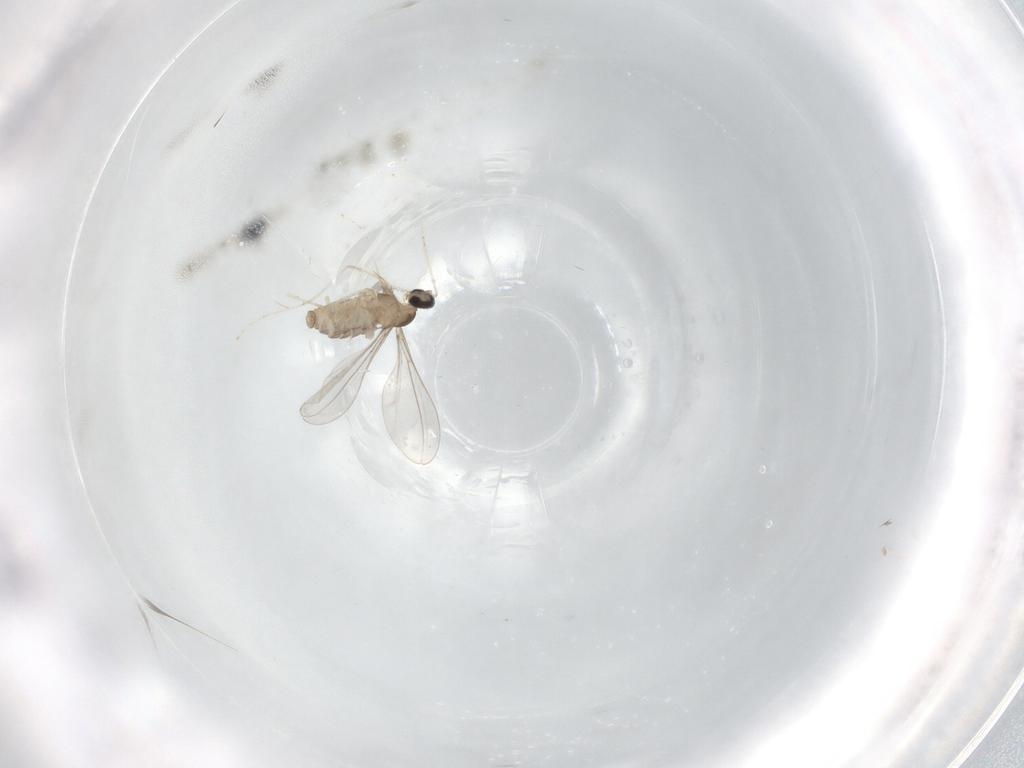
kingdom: Animalia
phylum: Arthropoda
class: Insecta
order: Diptera
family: Cecidomyiidae
